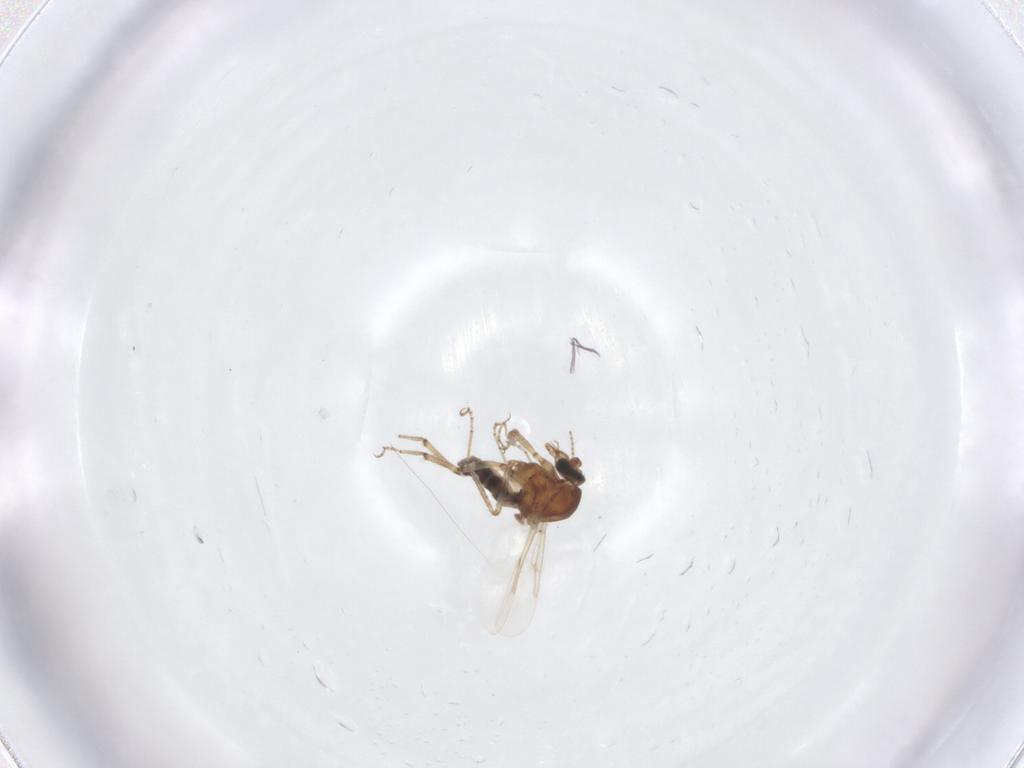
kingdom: Animalia
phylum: Arthropoda
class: Insecta
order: Diptera
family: Ceratopogonidae
